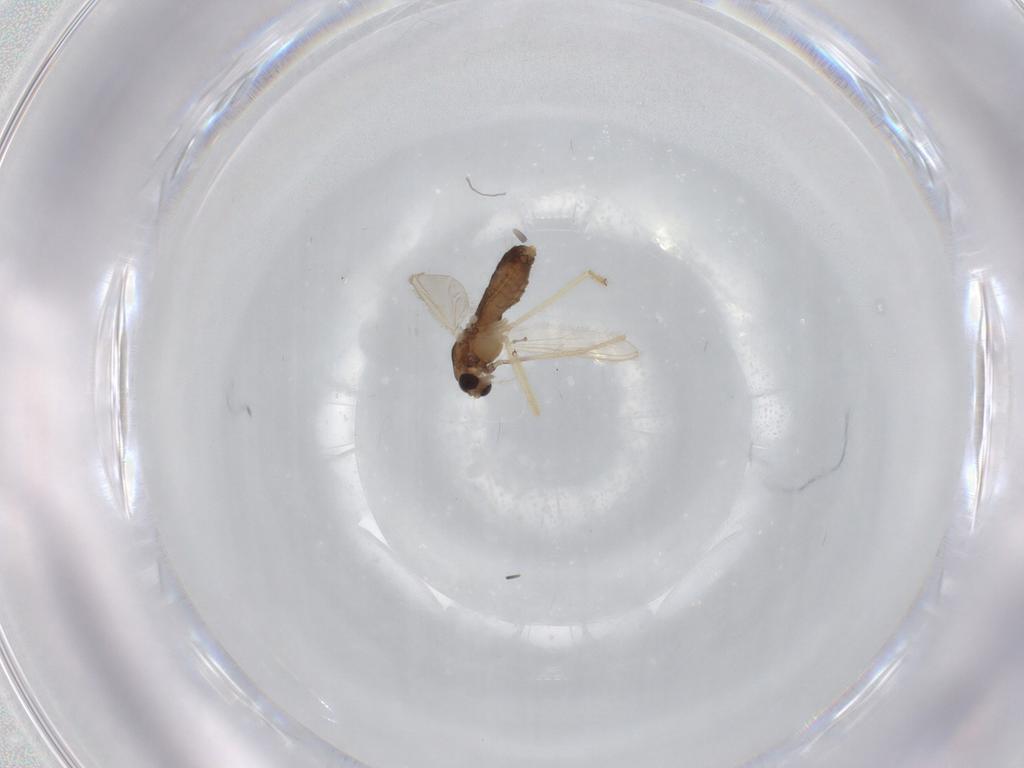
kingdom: Animalia
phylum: Arthropoda
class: Insecta
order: Diptera
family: Chironomidae
